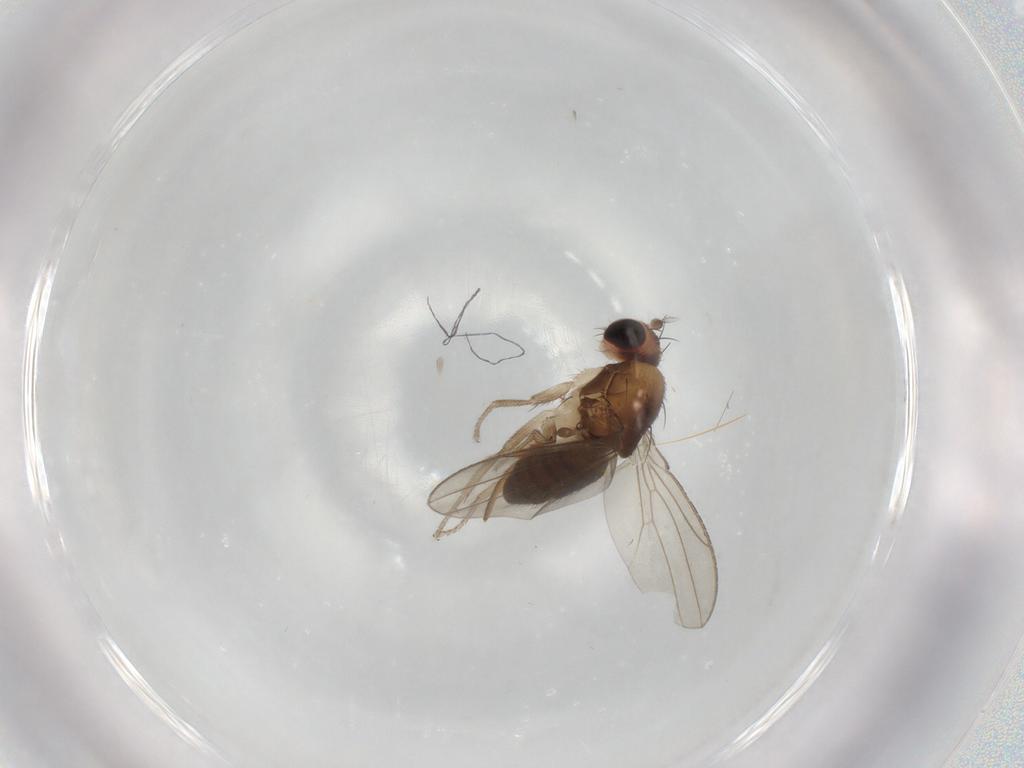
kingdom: Animalia
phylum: Arthropoda
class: Insecta
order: Diptera
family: Drosophilidae
